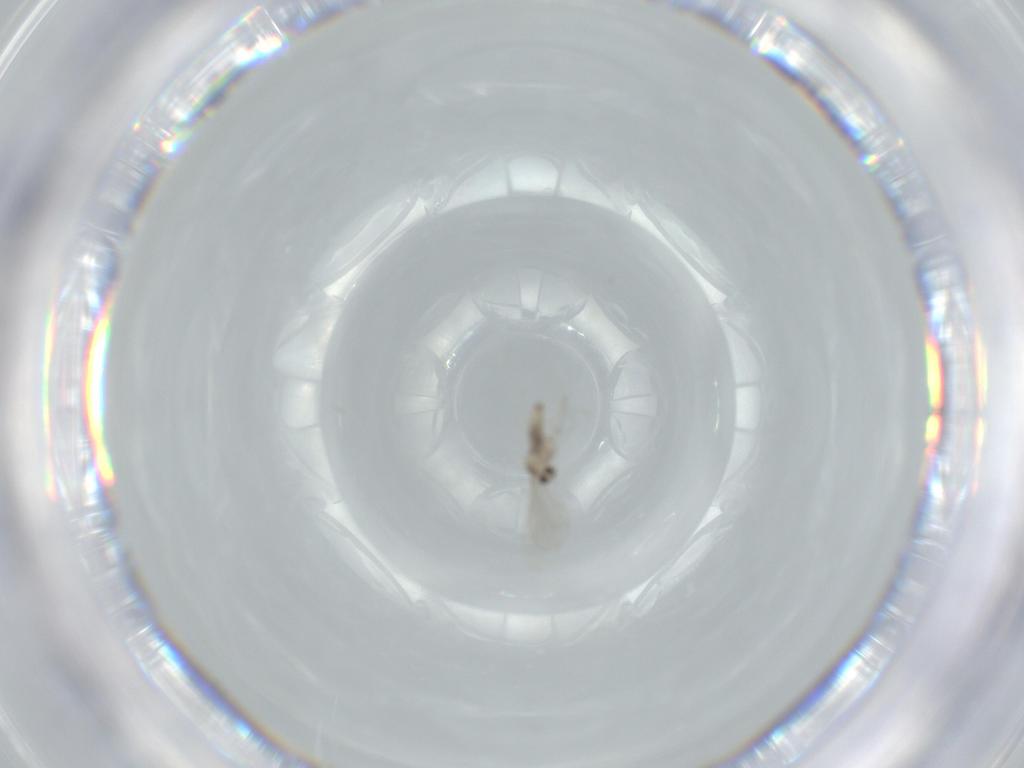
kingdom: Animalia
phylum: Arthropoda
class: Insecta
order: Diptera
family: Cecidomyiidae
